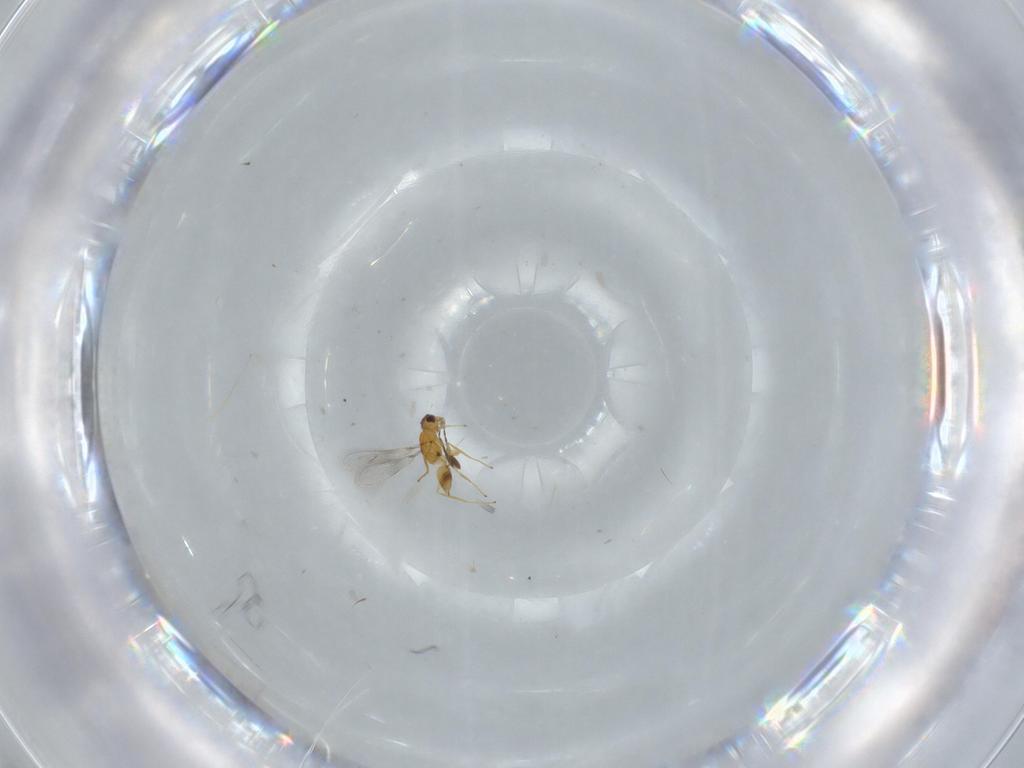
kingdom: Animalia
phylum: Arthropoda
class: Insecta
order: Hymenoptera
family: Mymaridae
